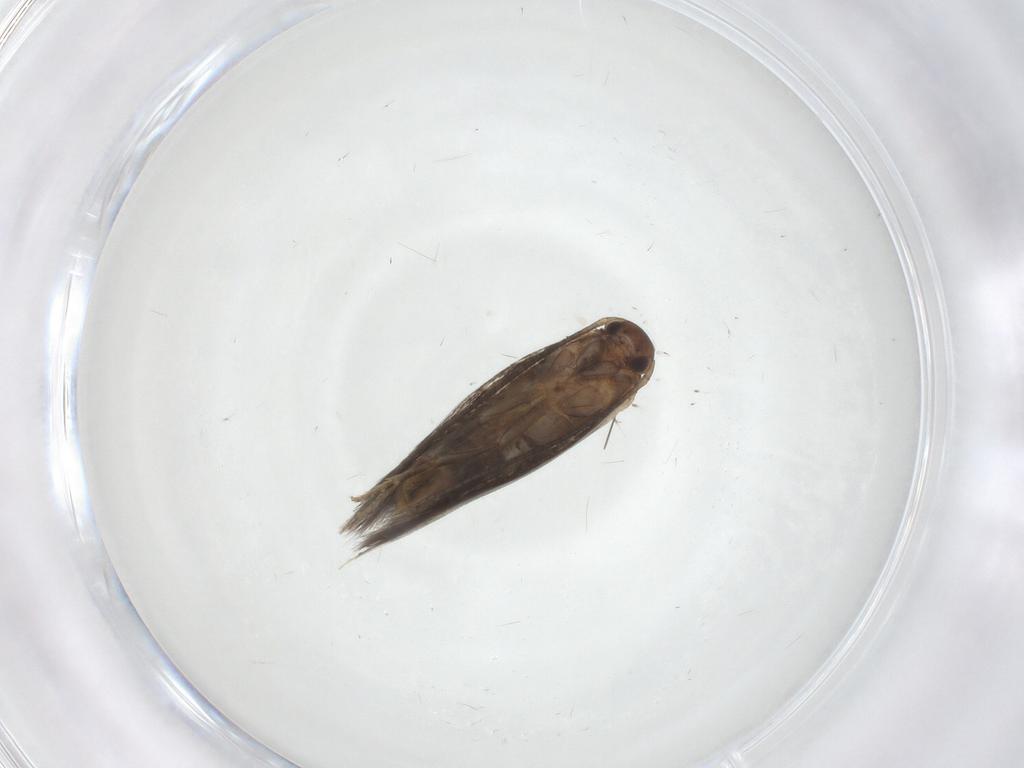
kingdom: Animalia
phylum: Arthropoda
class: Insecta
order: Lepidoptera
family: Elachistidae
